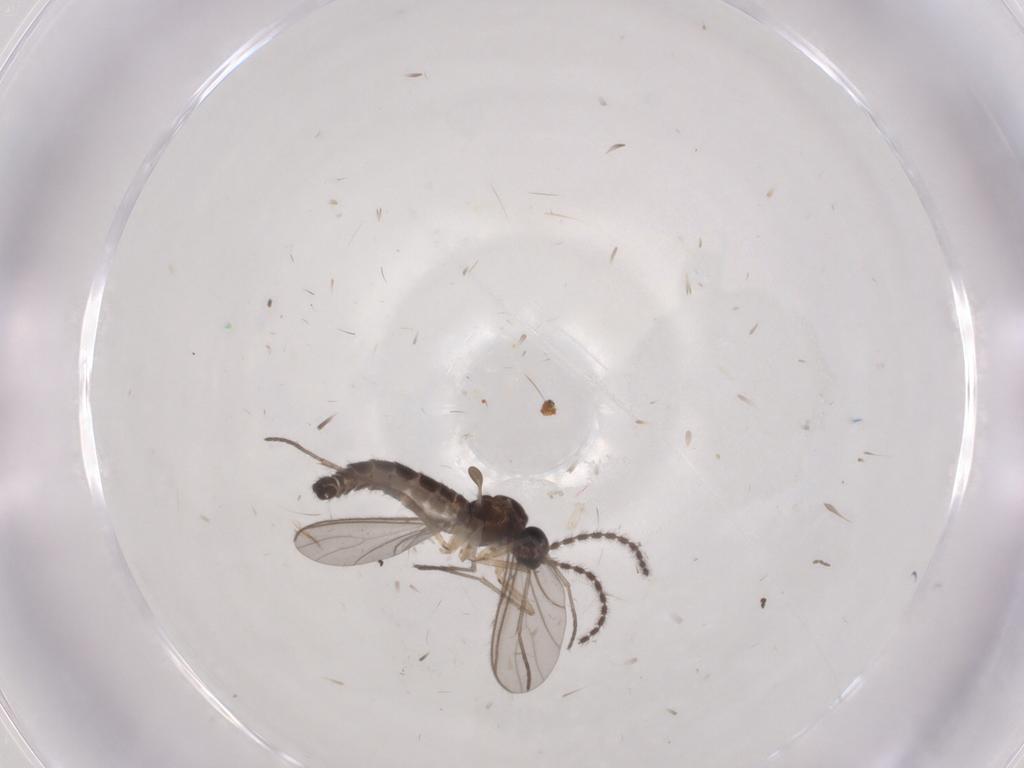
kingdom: Animalia
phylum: Arthropoda
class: Insecta
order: Diptera
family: Sciaridae
